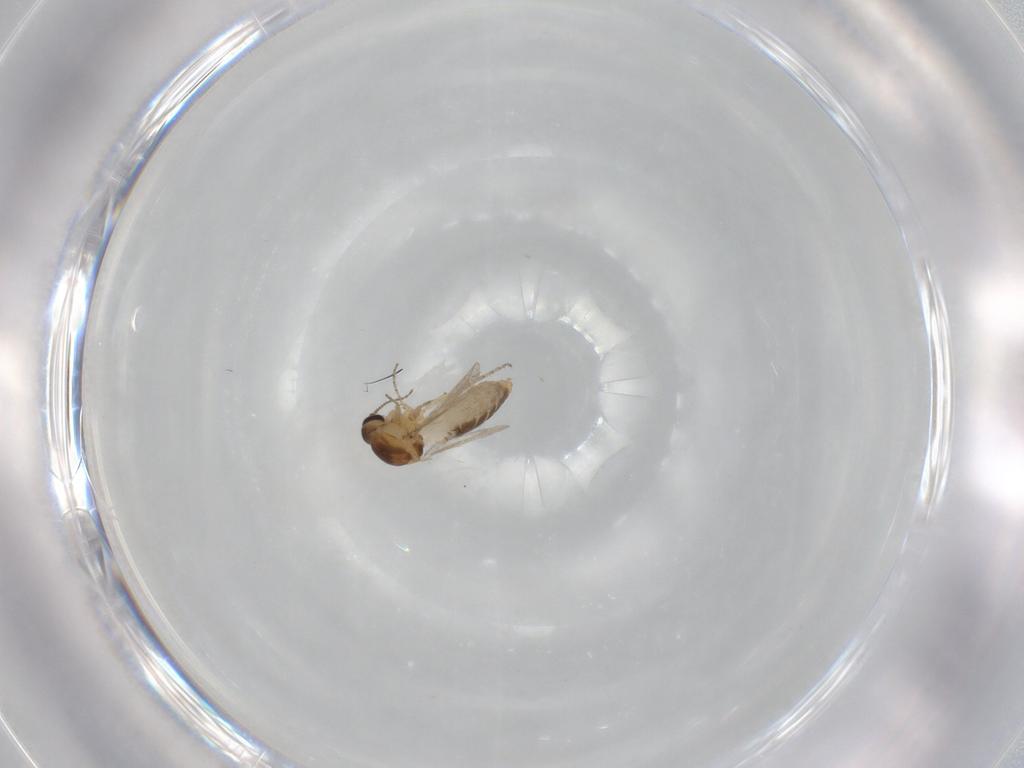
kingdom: Animalia
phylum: Arthropoda
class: Insecta
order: Diptera
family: Ceratopogonidae
